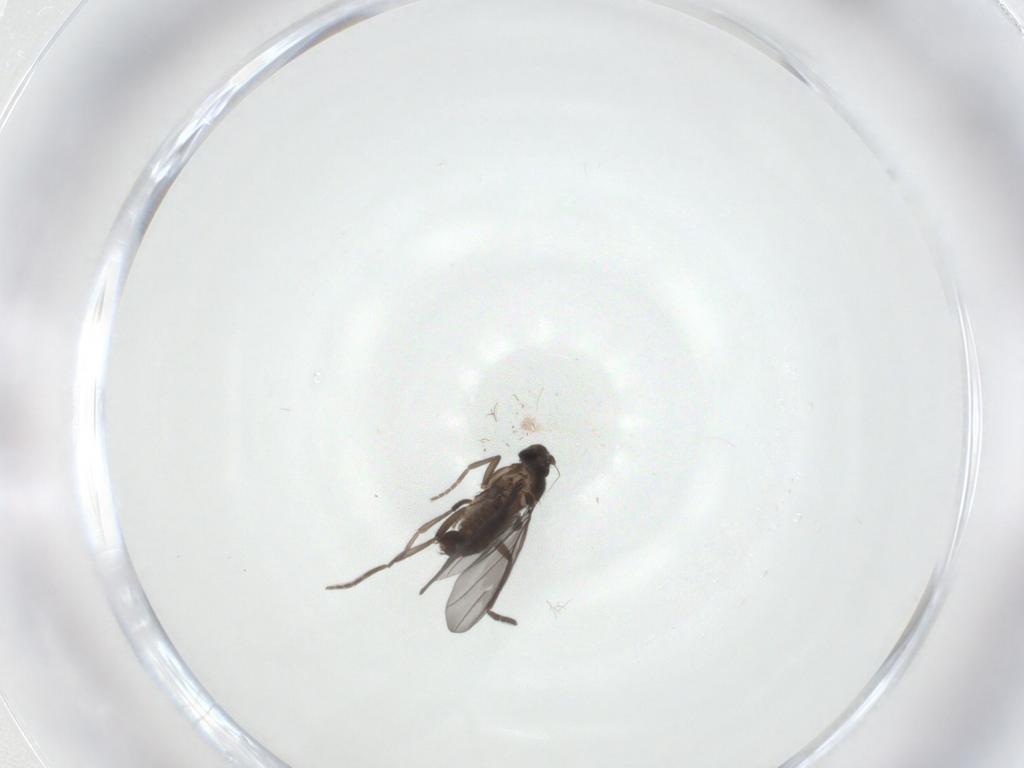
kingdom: Animalia
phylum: Arthropoda
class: Insecta
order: Diptera
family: Phoridae
